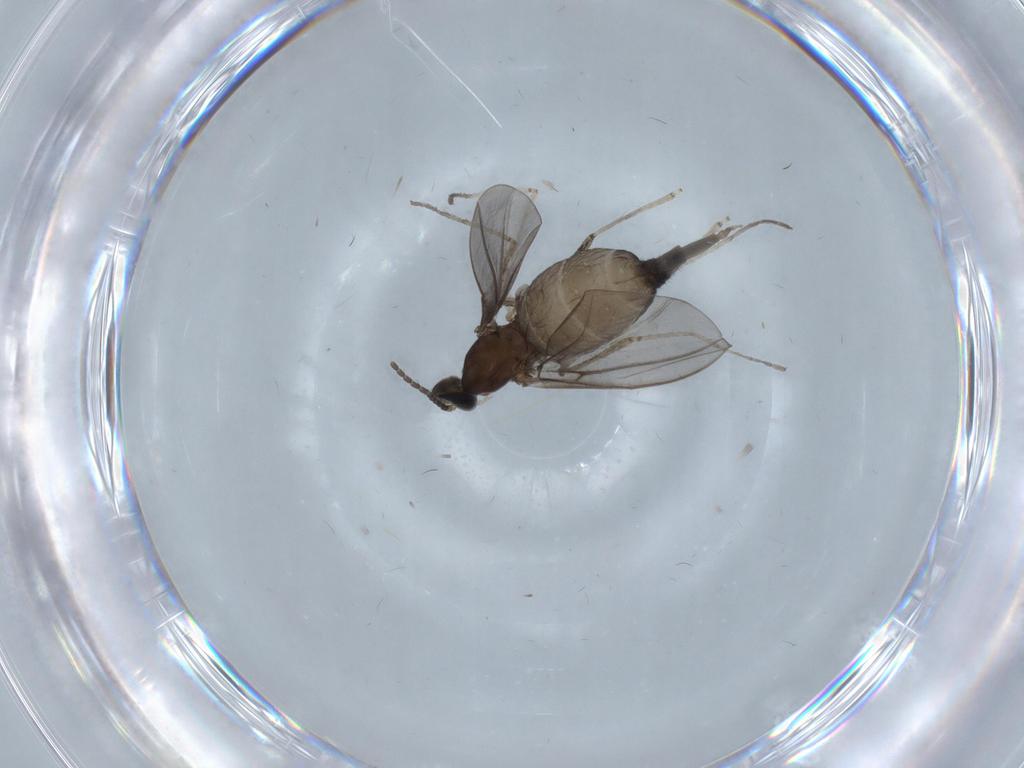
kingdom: Animalia
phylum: Arthropoda
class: Insecta
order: Diptera
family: Cecidomyiidae
